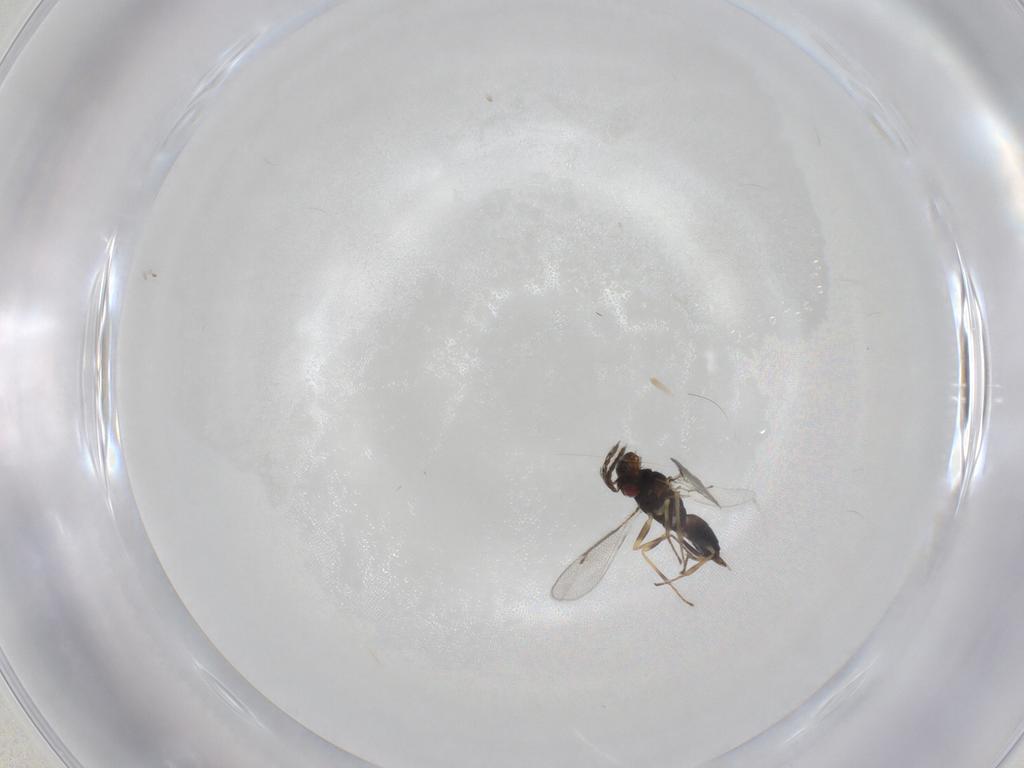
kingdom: Animalia
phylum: Arthropoda
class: Insecta
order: Hymenoptera
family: Eulophidae
